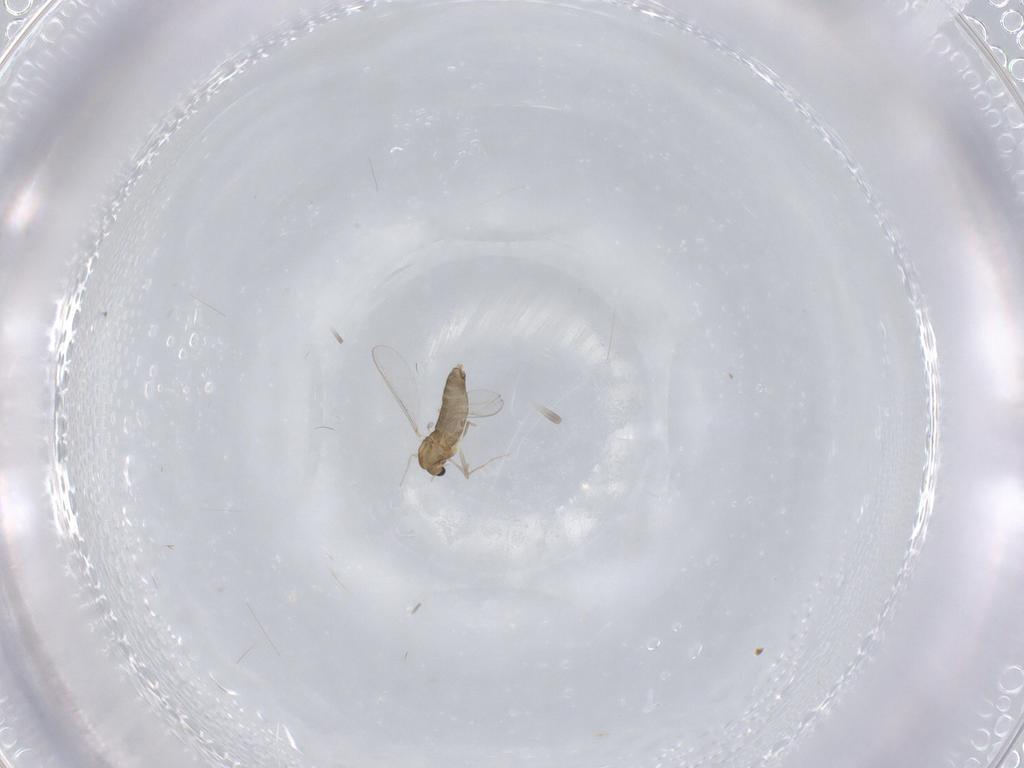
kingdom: Animalia
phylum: Arthropoda
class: Insecta
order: Diptera
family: Chironomidae
